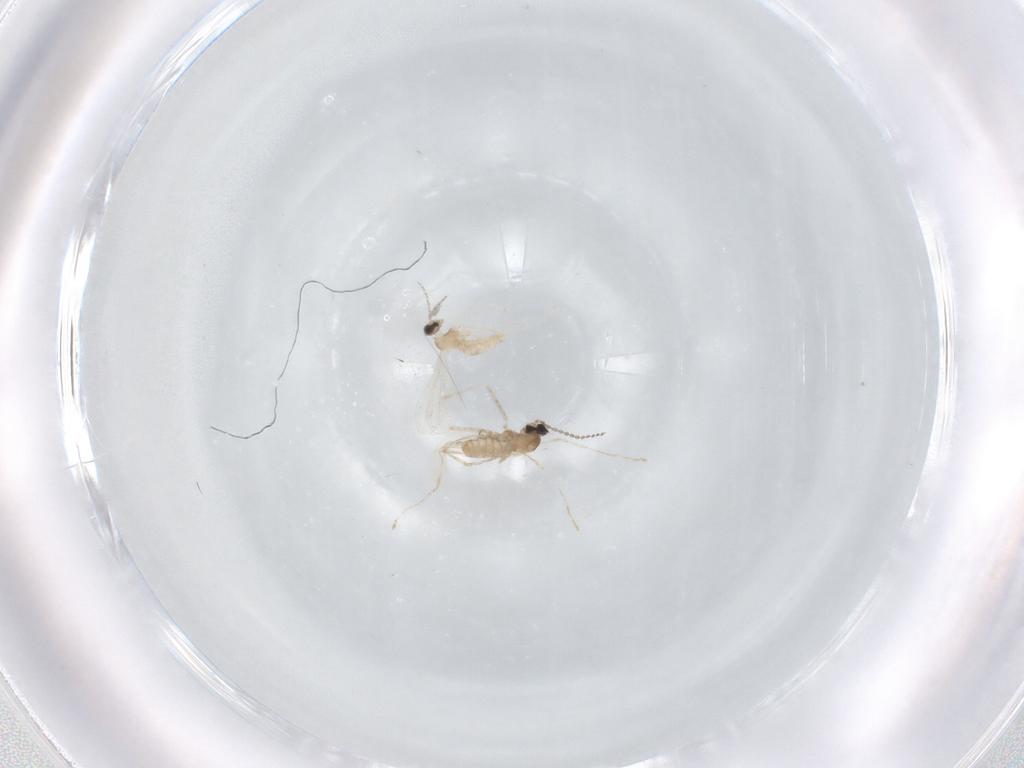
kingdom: Animalia
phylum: Arthropoda
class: Insecta
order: Diptera
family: Cecidomyiidae
